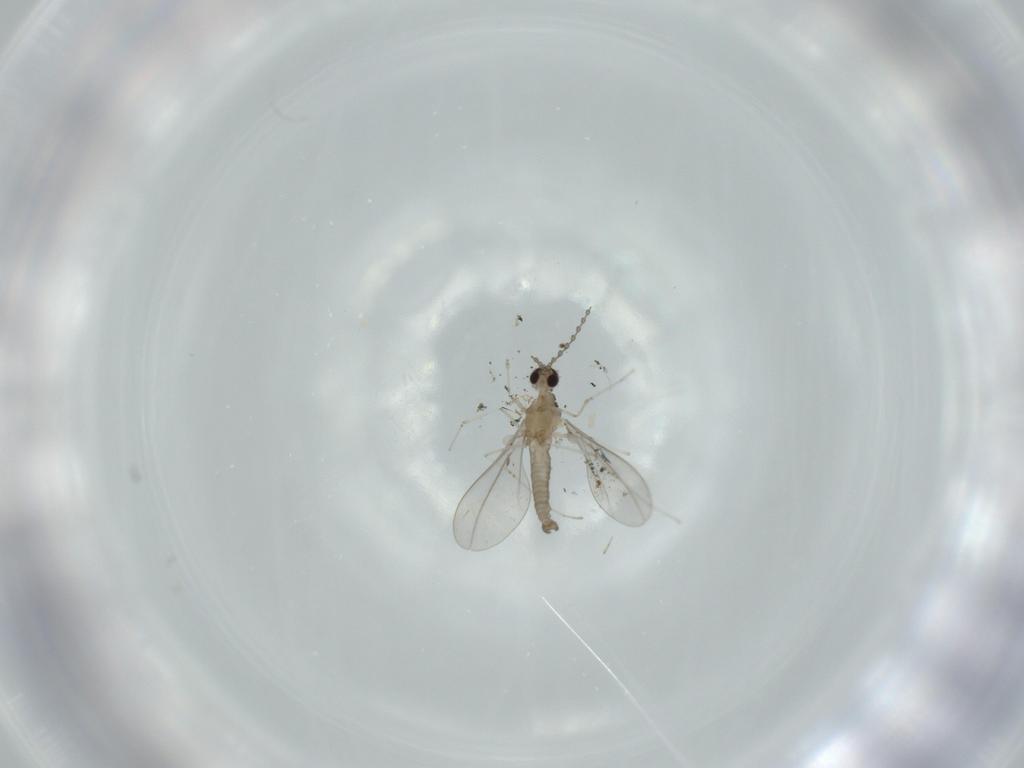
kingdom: Animalia
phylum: Arthropoda
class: Insecta
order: Diptera
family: Cecidomyiidae
